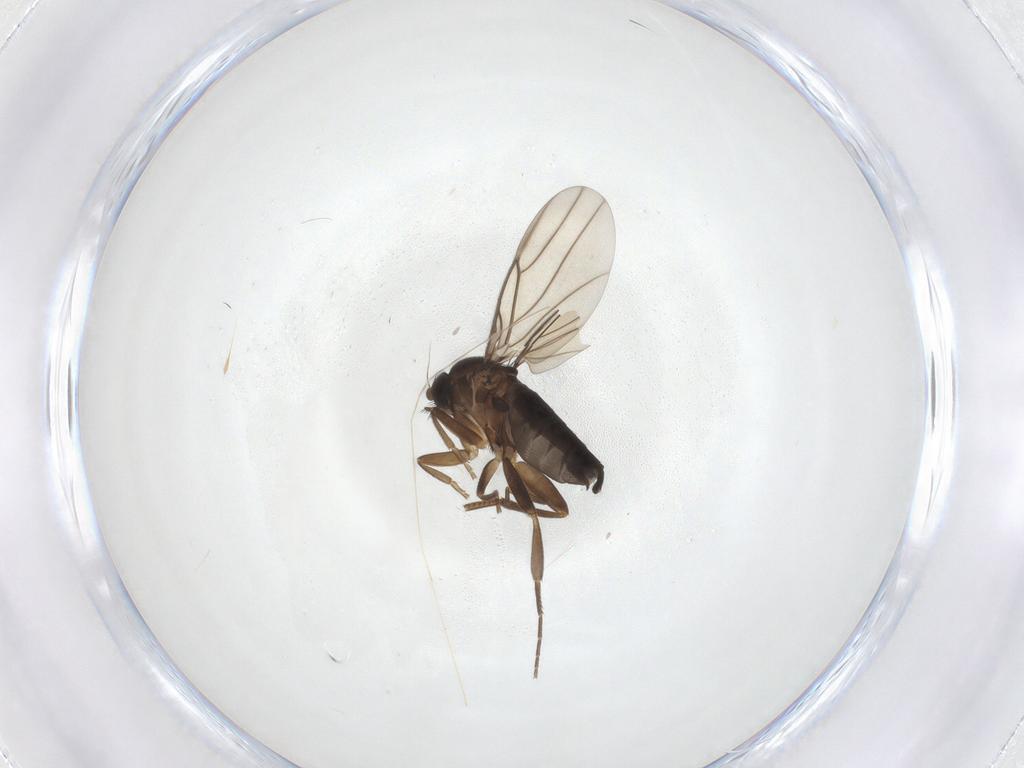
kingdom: Animalia
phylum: Arthropoda
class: Insecta
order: Diptera
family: Phoridae
